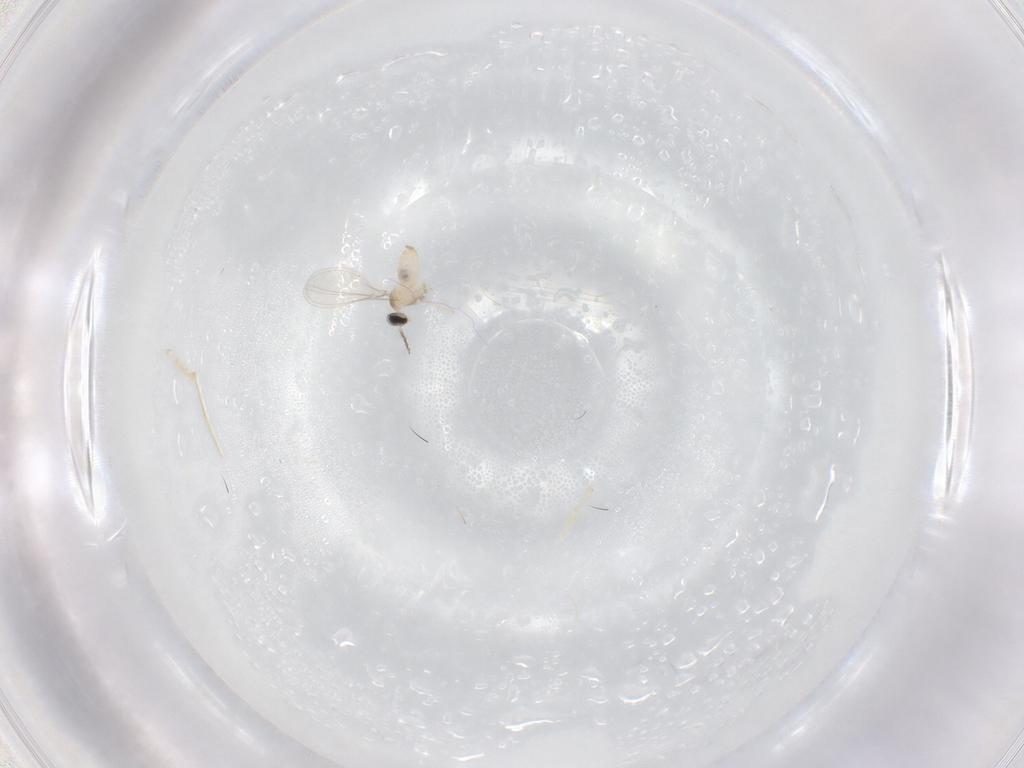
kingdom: Animalia
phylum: Arthropoda
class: Insecta
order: Diptera
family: Cecidomyiidae
